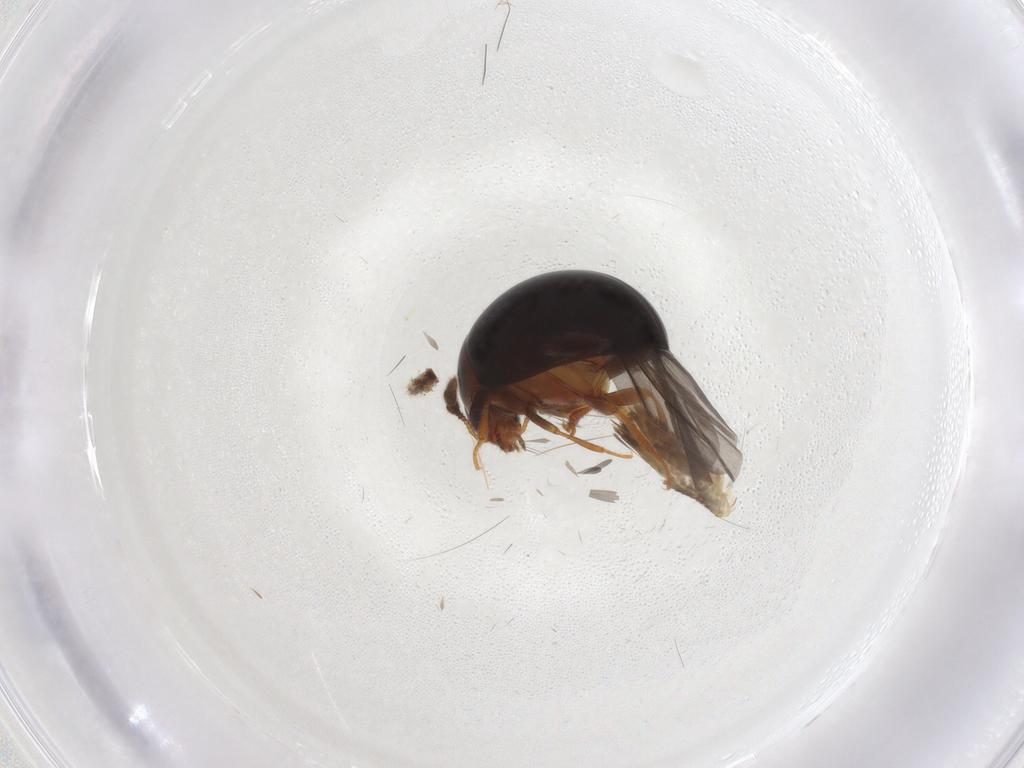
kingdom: Animalia
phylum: Arthropoda
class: Insecta
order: Coleoptera
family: Leiodidae
